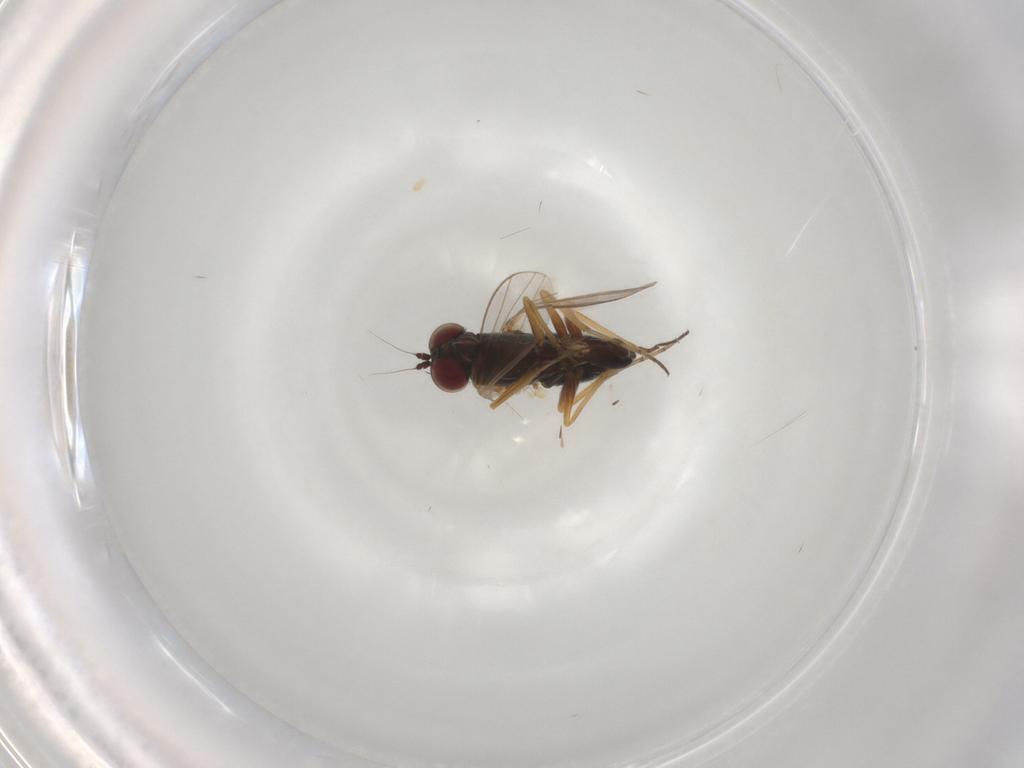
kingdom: Animalia
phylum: Arthropoda
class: Insecta
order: Diptera
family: Dolichopodidae
